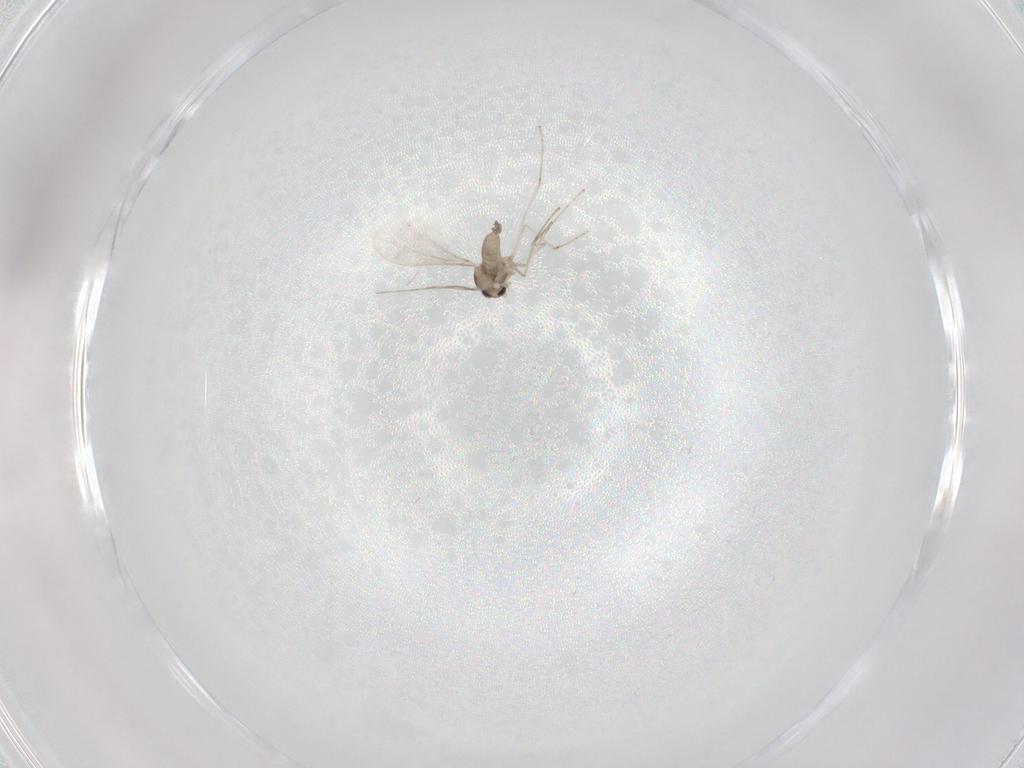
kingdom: Animalia
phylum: Arthropoda
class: Insecta
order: Diptera
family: Cecidomyiidae
